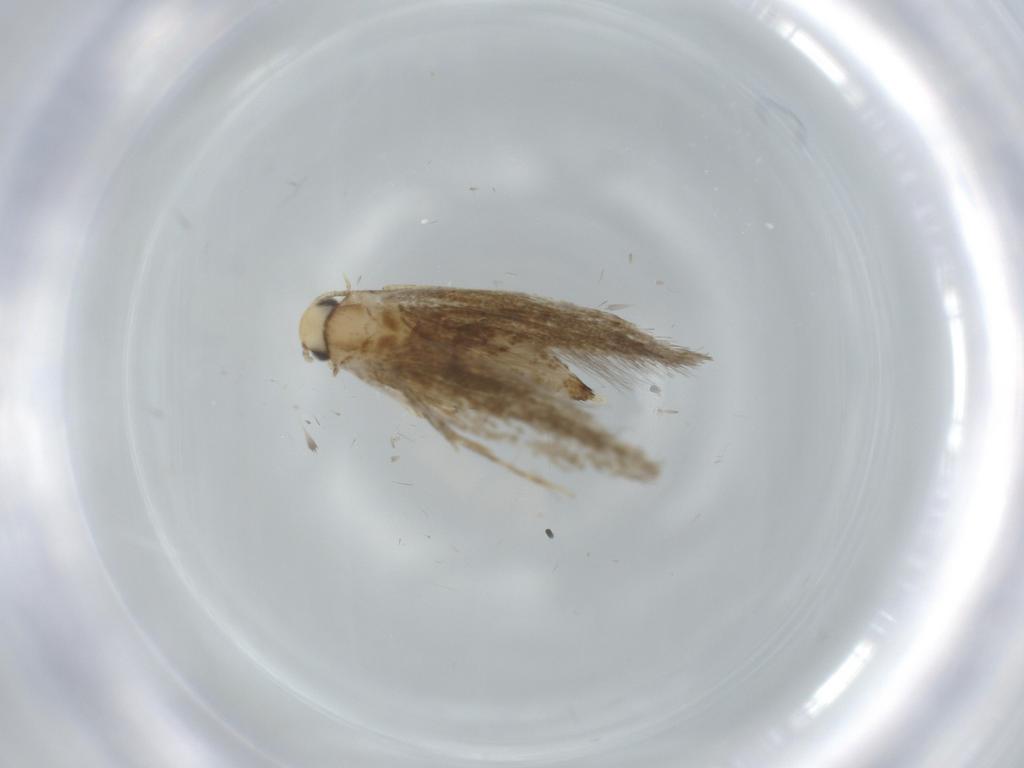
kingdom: Animalia
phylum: Arthropoda
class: Insecta
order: Lepidoptera
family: Tineidae
